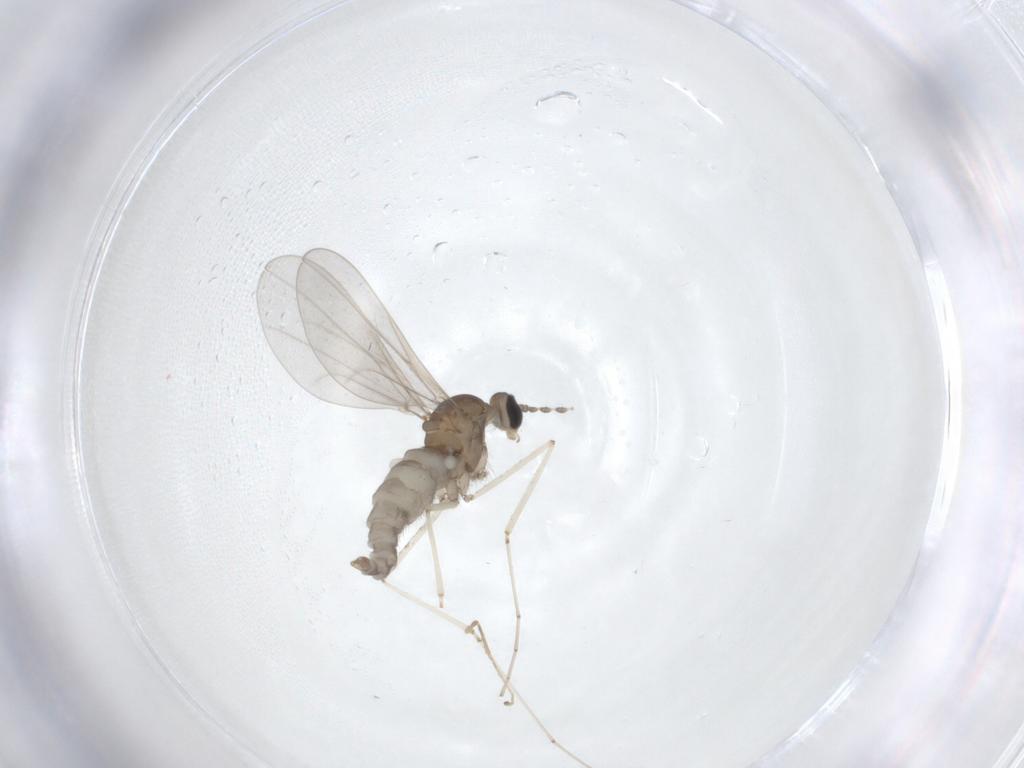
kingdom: Animalia
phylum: Arthropoda
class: Insecta
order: Diptera
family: Cecidomyiidae
